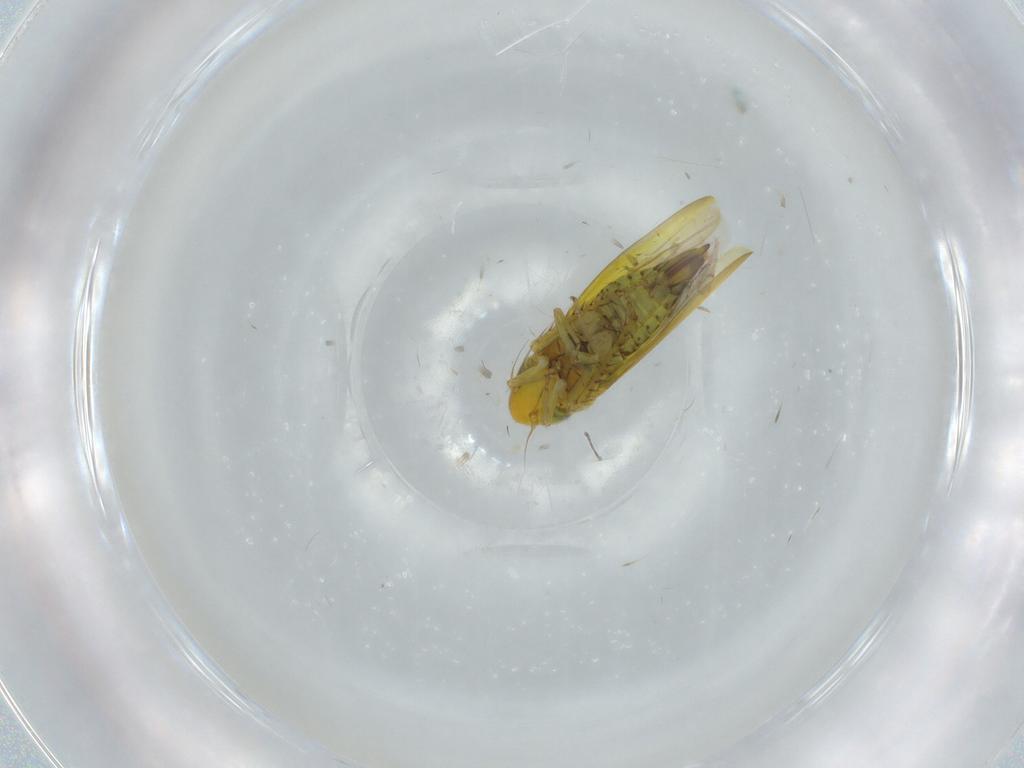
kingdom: Animalia
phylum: Arthropoda
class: Insecta
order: Hemiptera
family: Cicadellidae
